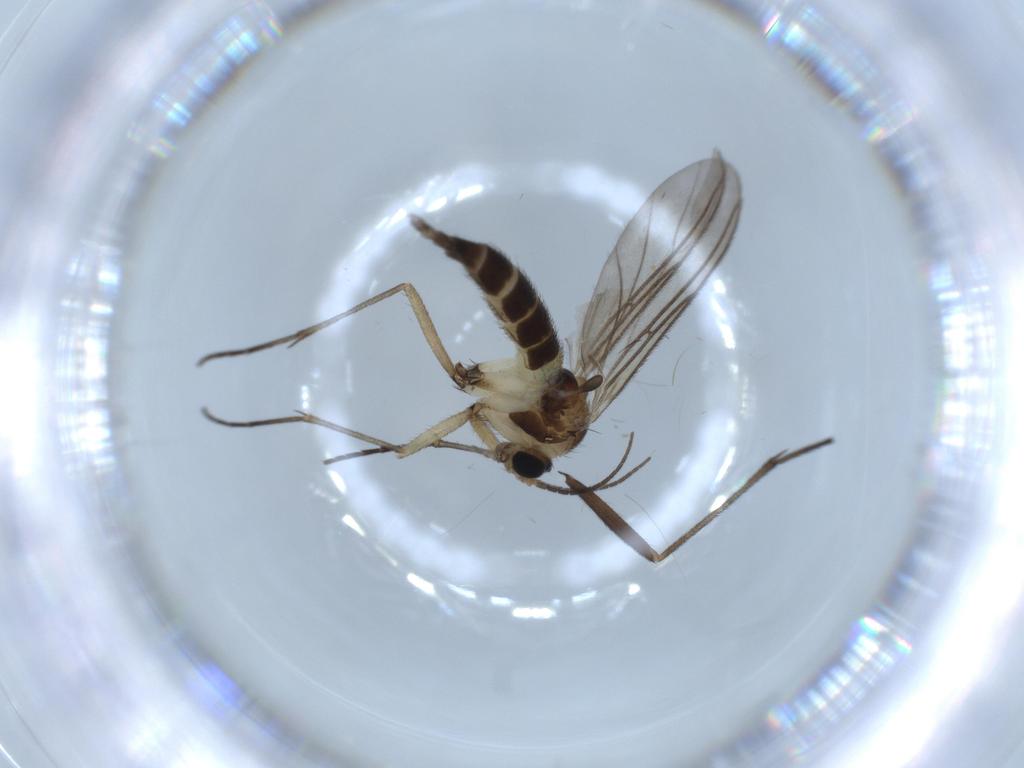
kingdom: Animalia
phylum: Arthropoda
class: Insecta
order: Diptera
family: Sciaridae
